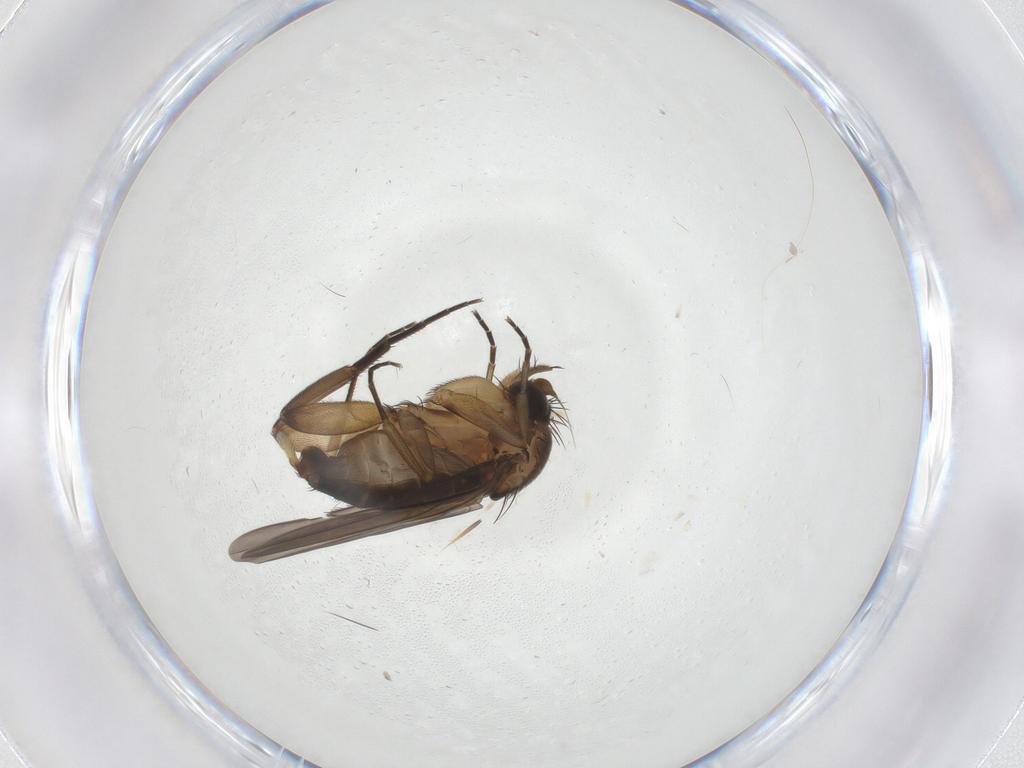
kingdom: Animalia
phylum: Arthropoda
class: Insecta
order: Diptera
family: Phoridae
